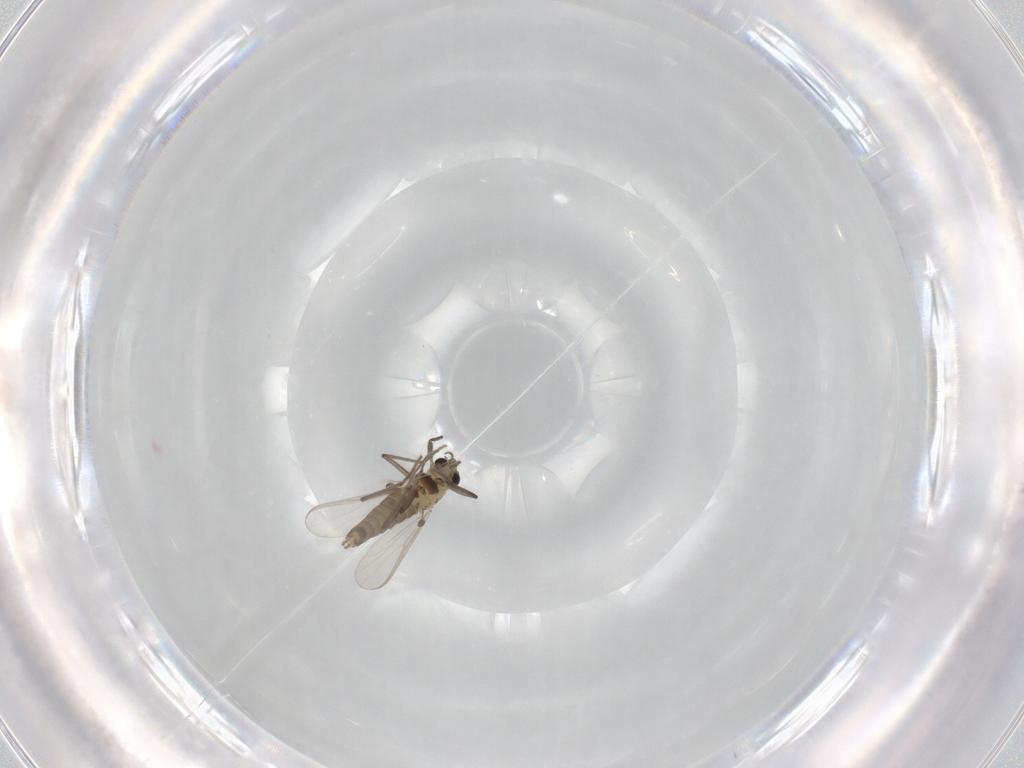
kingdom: Animalia
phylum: Arthropoda
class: Insecta
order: Diptera
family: Chironomidae
